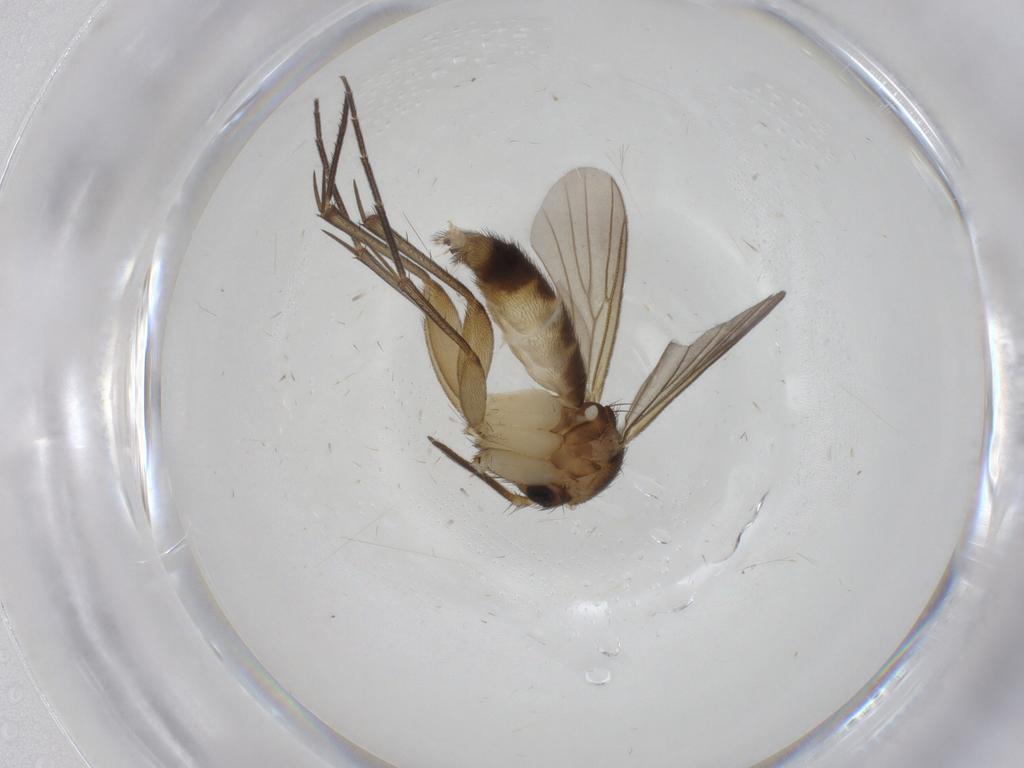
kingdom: Animalia
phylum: Arthropoda
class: Insecta
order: Diptera
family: Mycetophilidae
